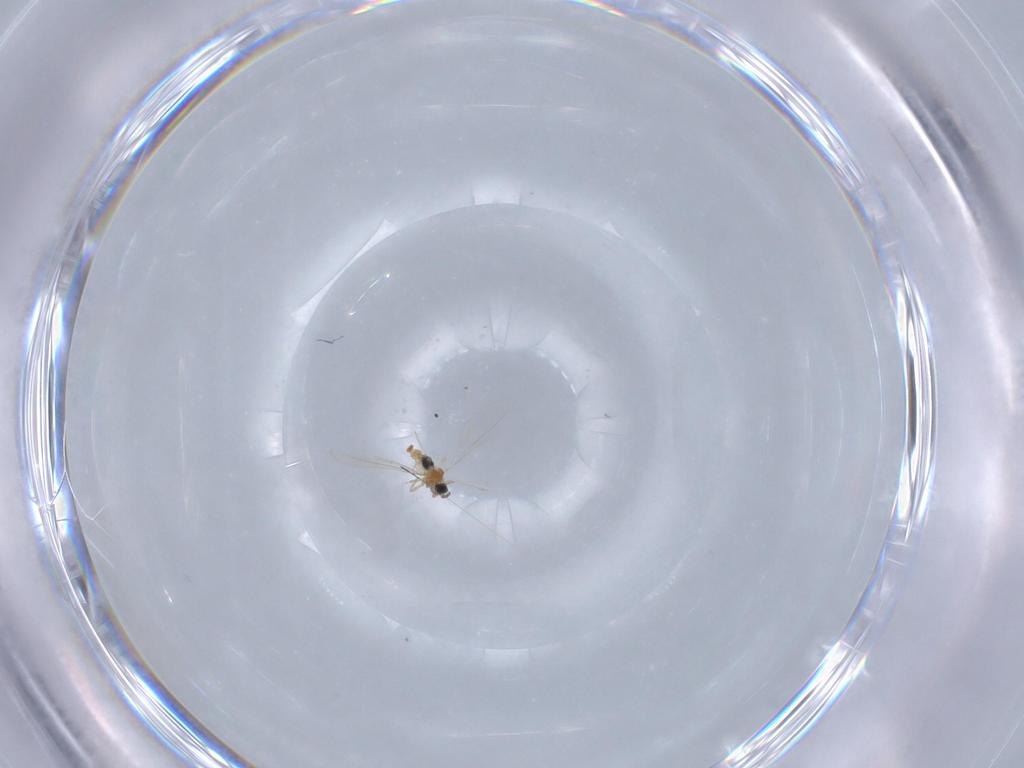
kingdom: Animalia
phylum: Arthropoda
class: Insecta
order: Diptera
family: Cecidomyiidae
